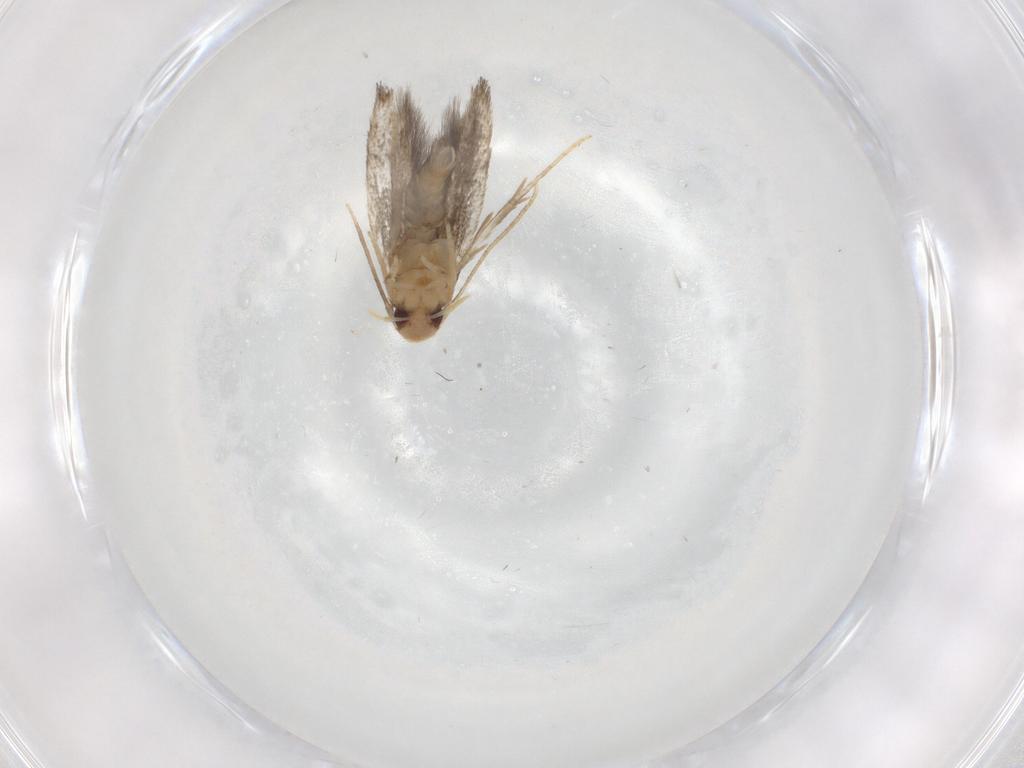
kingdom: Animalia
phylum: Arthropoda
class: Insecta
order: Lepidoptera
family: Gelechiidae
